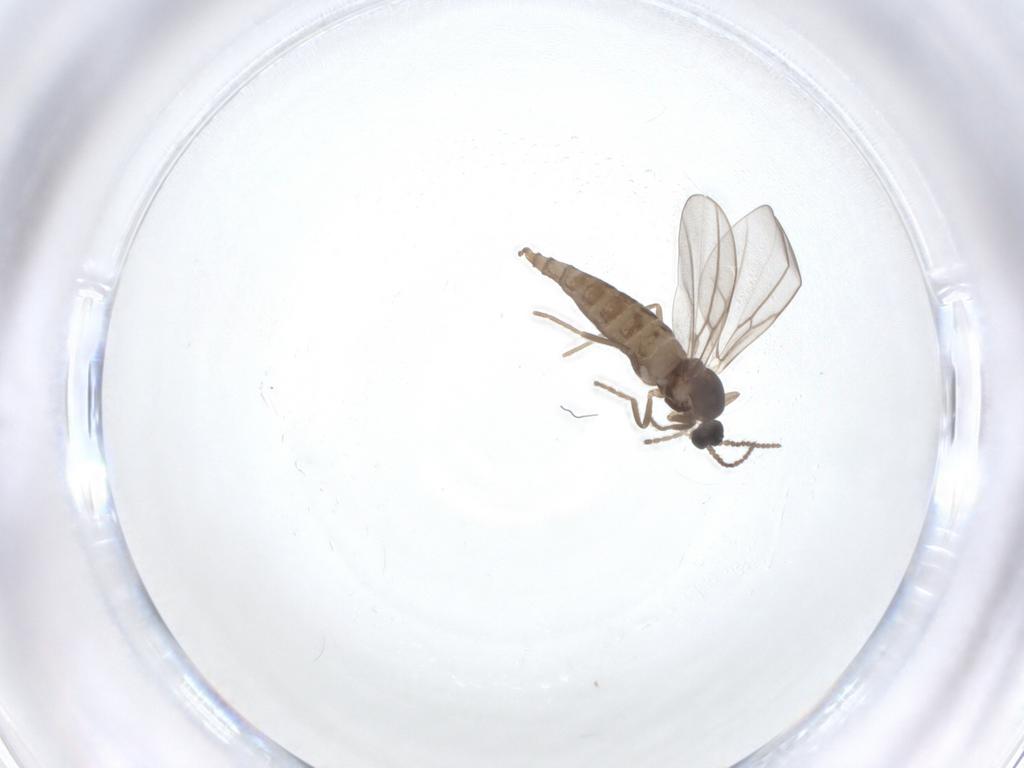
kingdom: Animalia
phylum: Arthropoda
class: Insecta
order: Diptera
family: Cecidomyiidae
